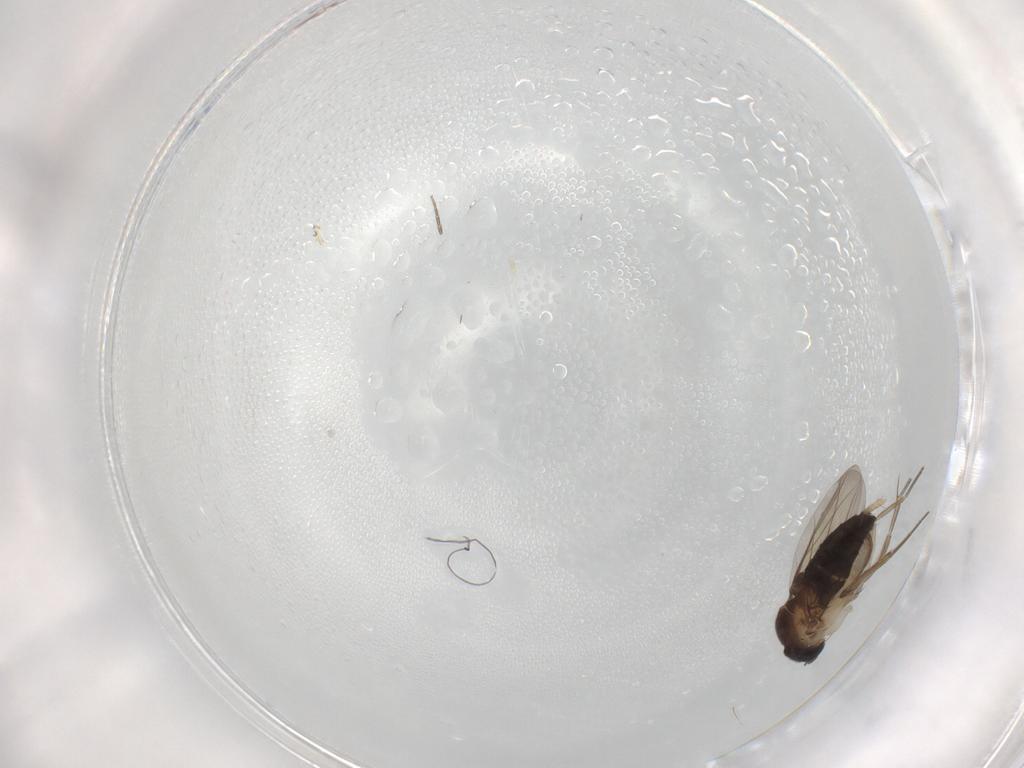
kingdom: Animalia
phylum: Arthropoda
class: Insecta
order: Diptera
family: Phoridae
